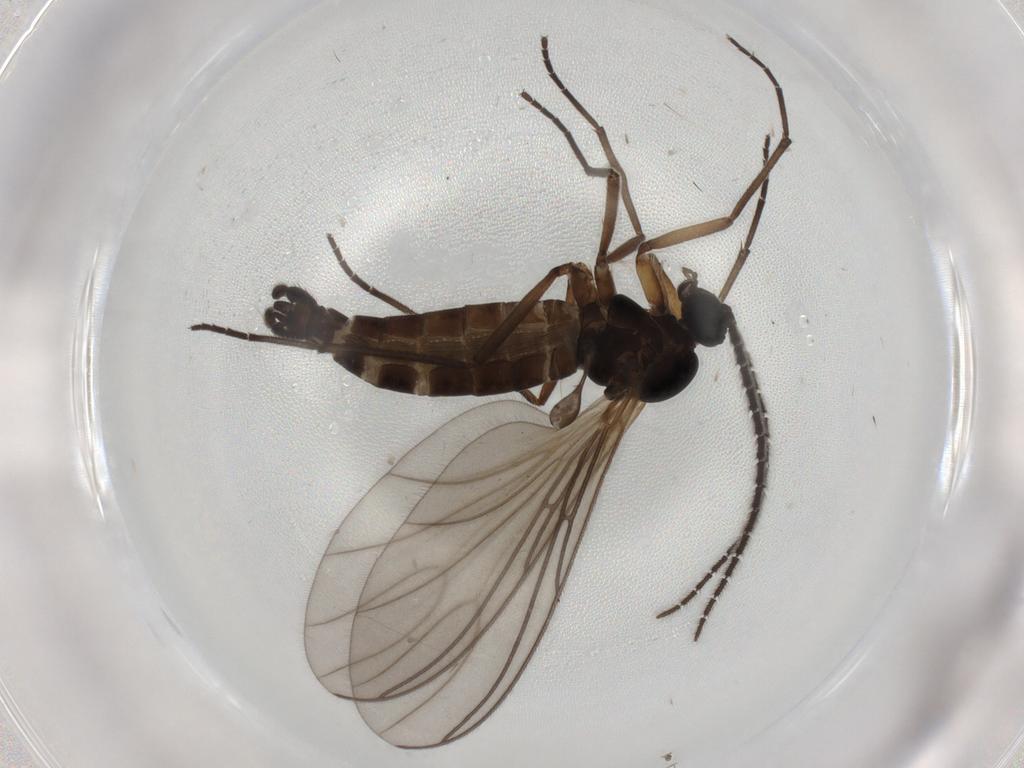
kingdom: Animalia
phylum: Arthropoda
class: Insecta
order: Diptera
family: Sciaridae
